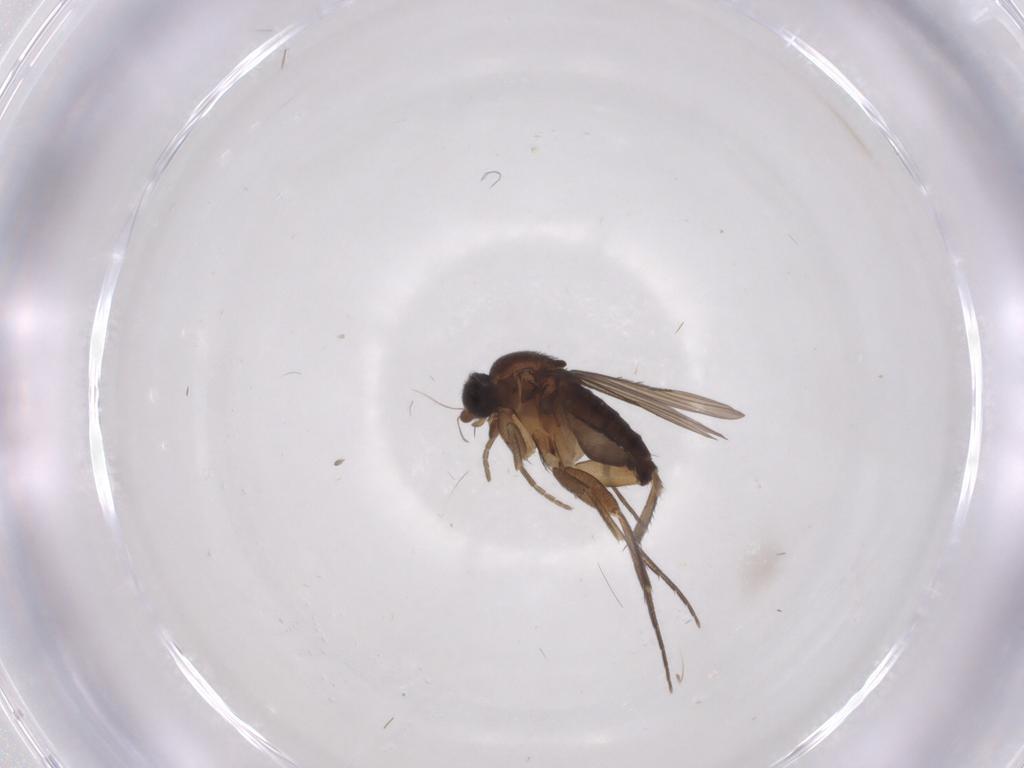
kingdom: Animalia
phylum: Arthropoda
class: Insecta
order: Diptera
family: Phoridae
